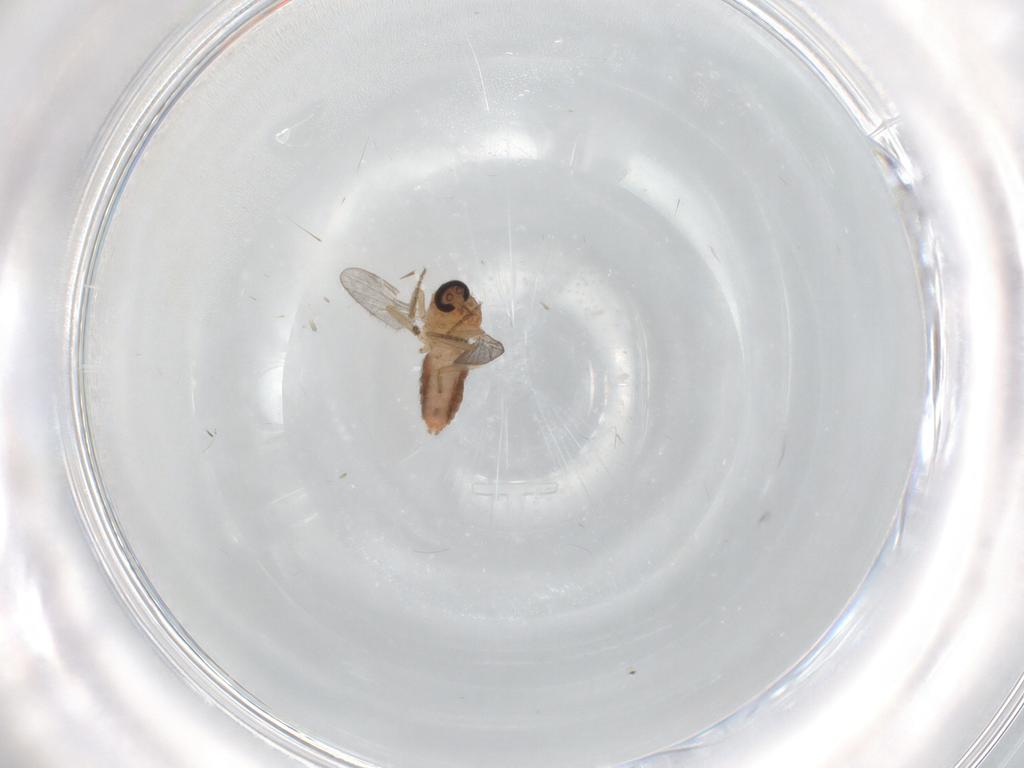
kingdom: Animalia
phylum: Arthropoda
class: Insecta
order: Diptera
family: Ceratopogonidae
